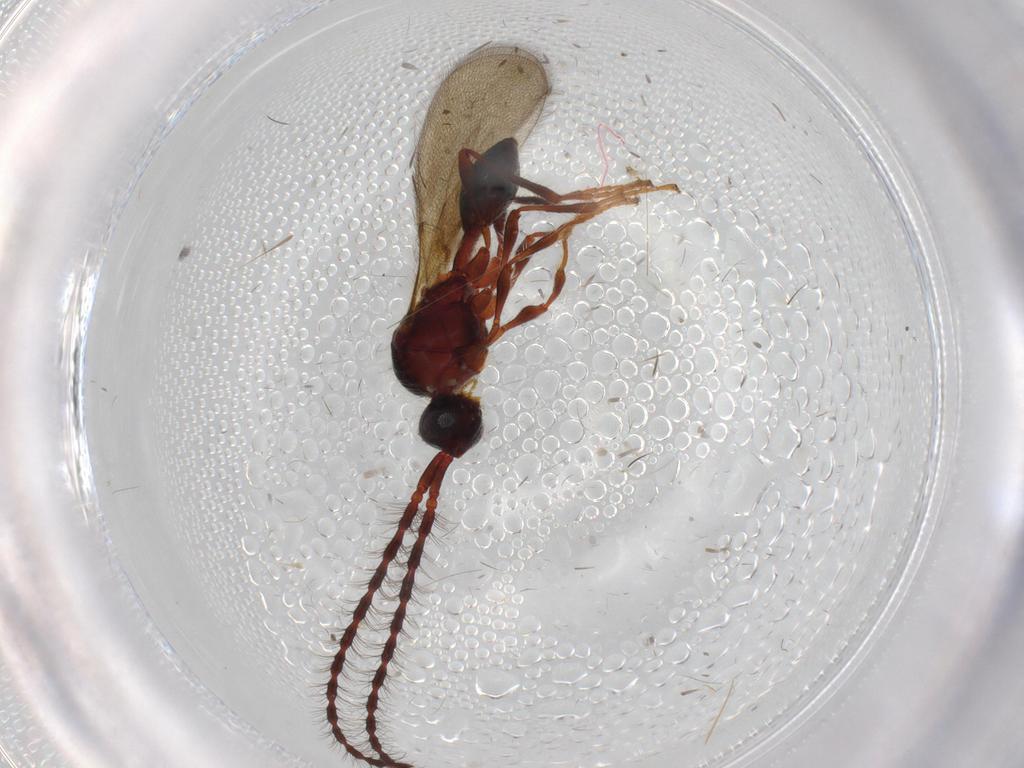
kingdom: Animalia
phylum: Arthropoda
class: Insecta
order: Hymenoptera
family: Diapriidae
